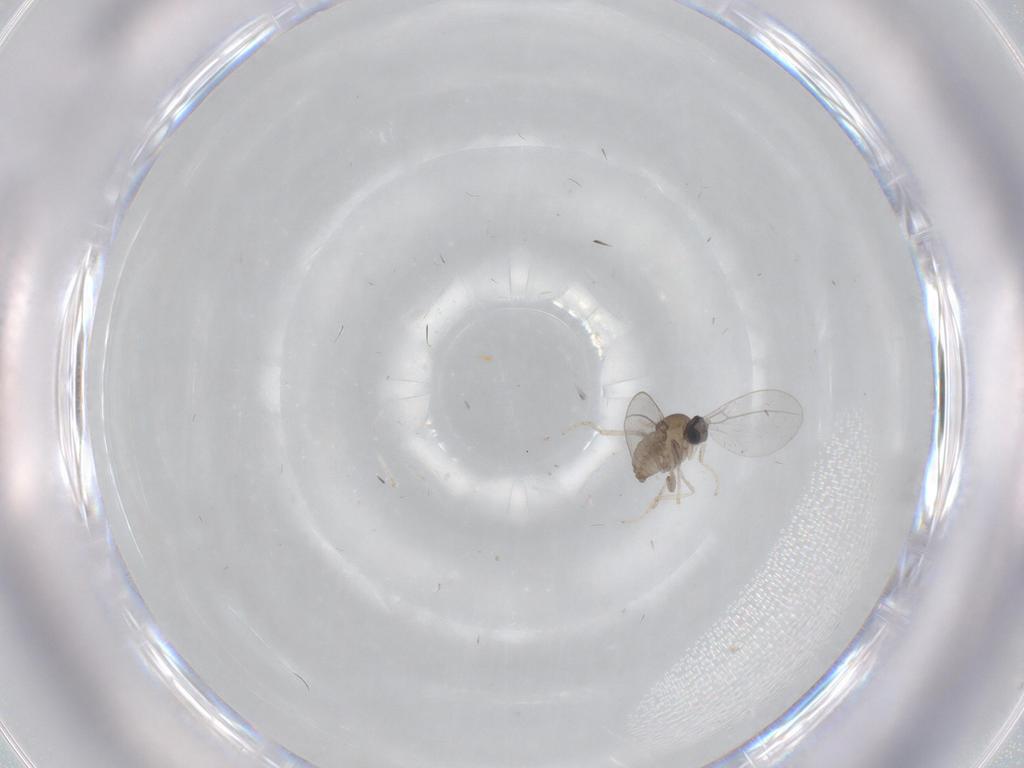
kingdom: Animalia
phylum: Arthropoda
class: Insecta
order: Diptera
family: Cecidomyiidae
